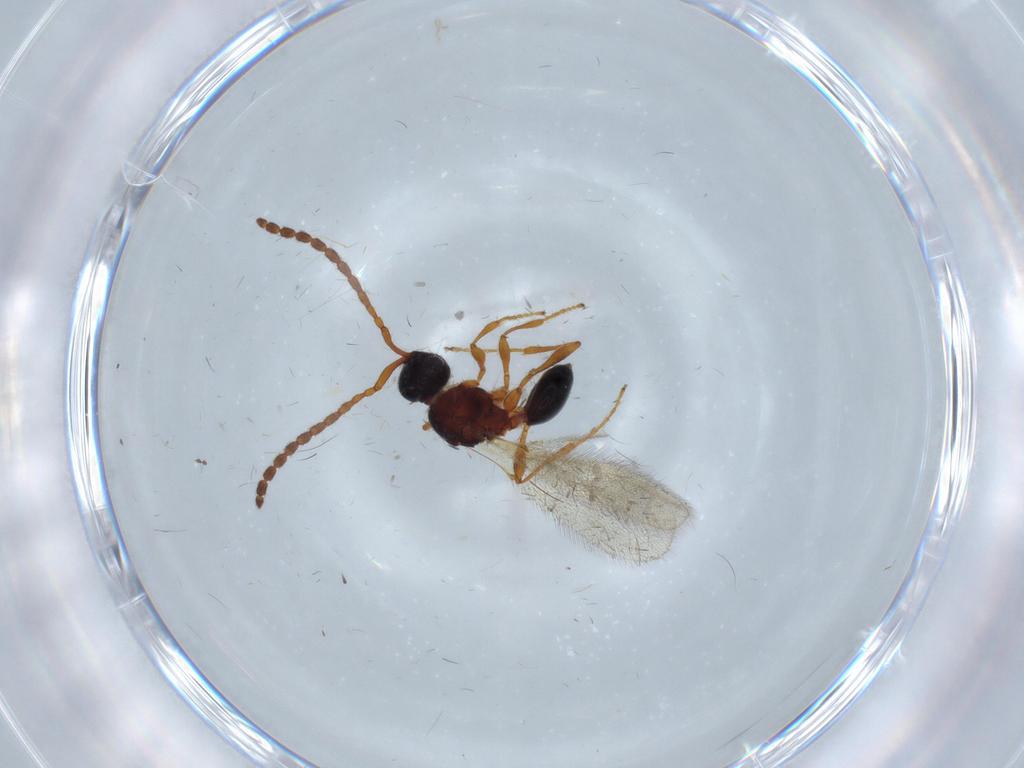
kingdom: Animalia
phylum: Arthropoda
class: Insecta
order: Hymenoptera
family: Diapriidae
